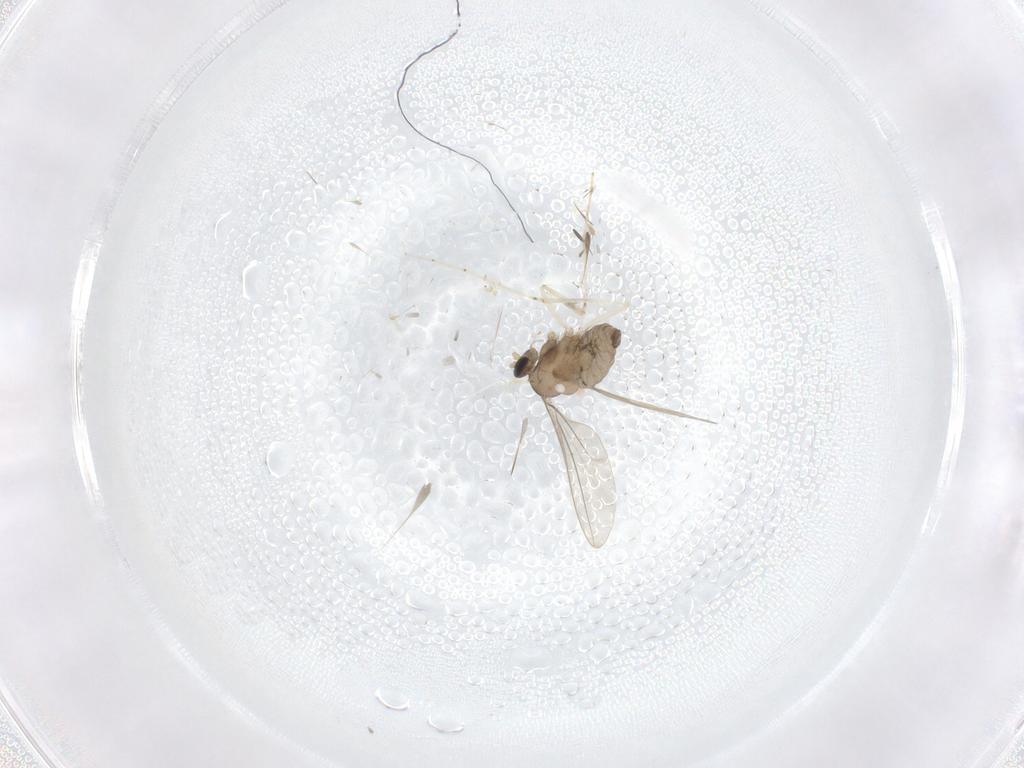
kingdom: Animalia
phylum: Arthropoda
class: Insecta
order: Diptera
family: Cecidomyiidae
